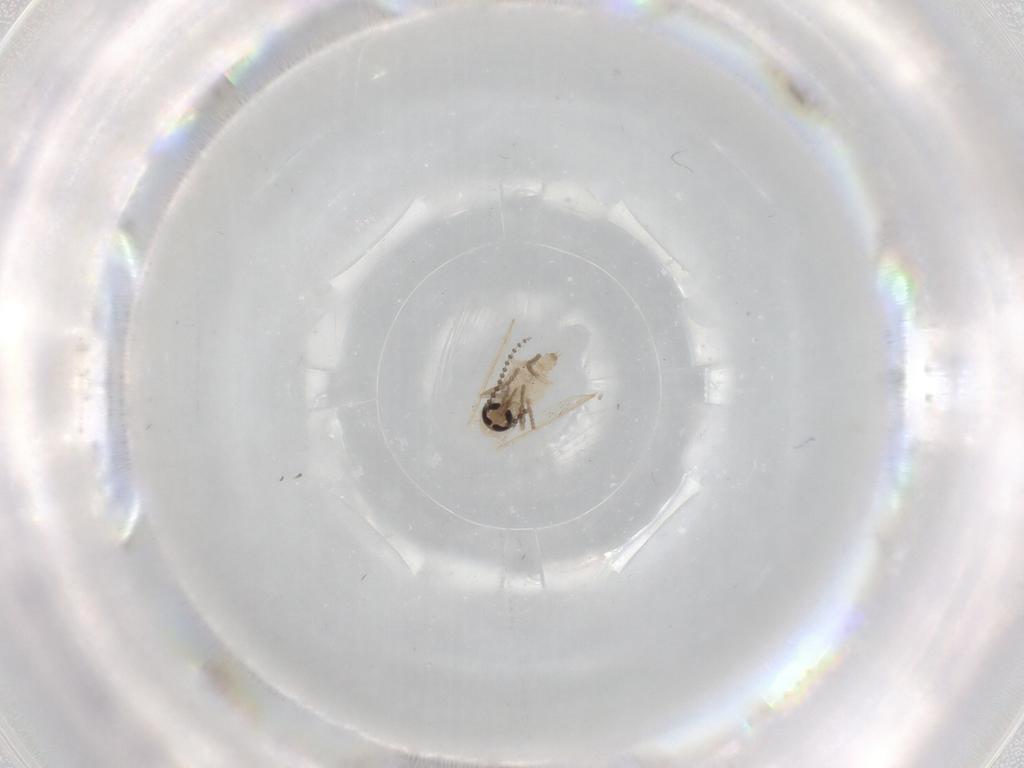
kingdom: Animalia
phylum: Arthropoda
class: Insecta
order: Diptera
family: Psychodidae
